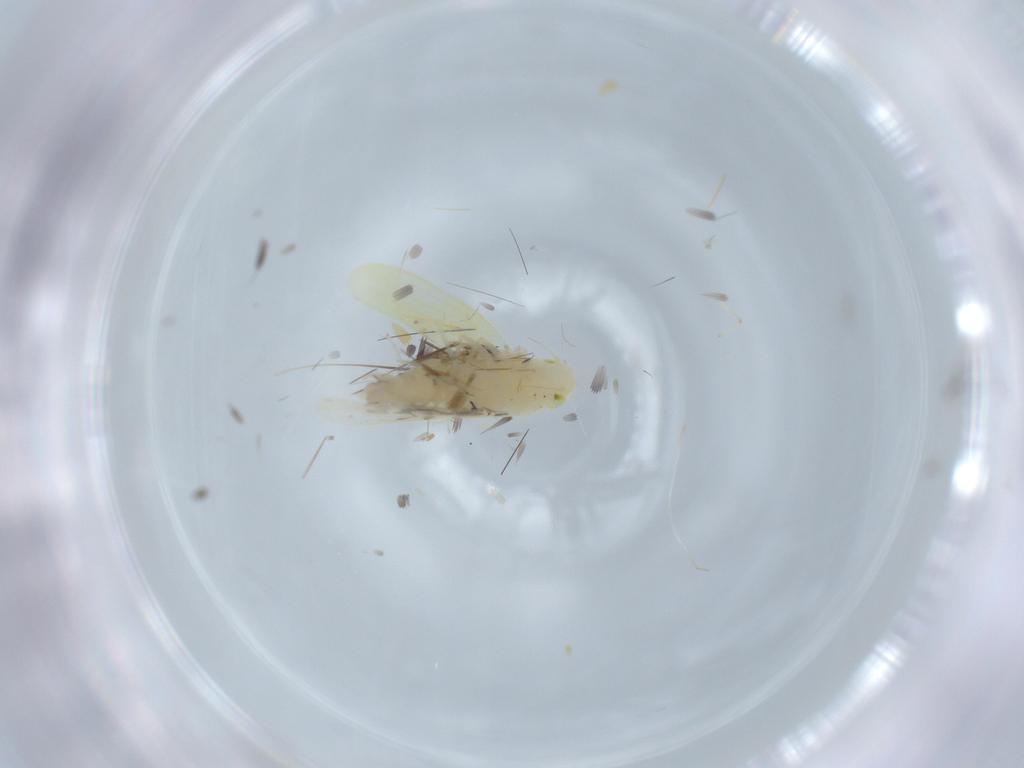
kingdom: Animalia
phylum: Arthropoda
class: Insecta
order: Hemiptera
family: Cicadellidae
